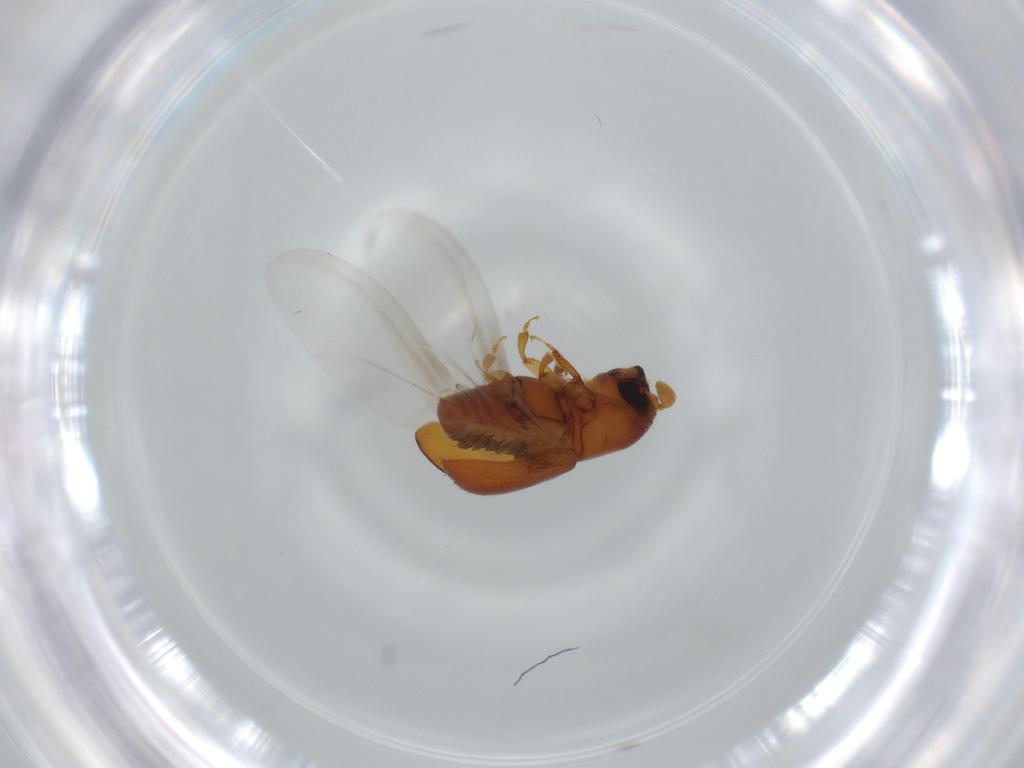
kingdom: Animalia
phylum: Arthropoda
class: Insecta
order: Coleoptera
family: Curculionidae
